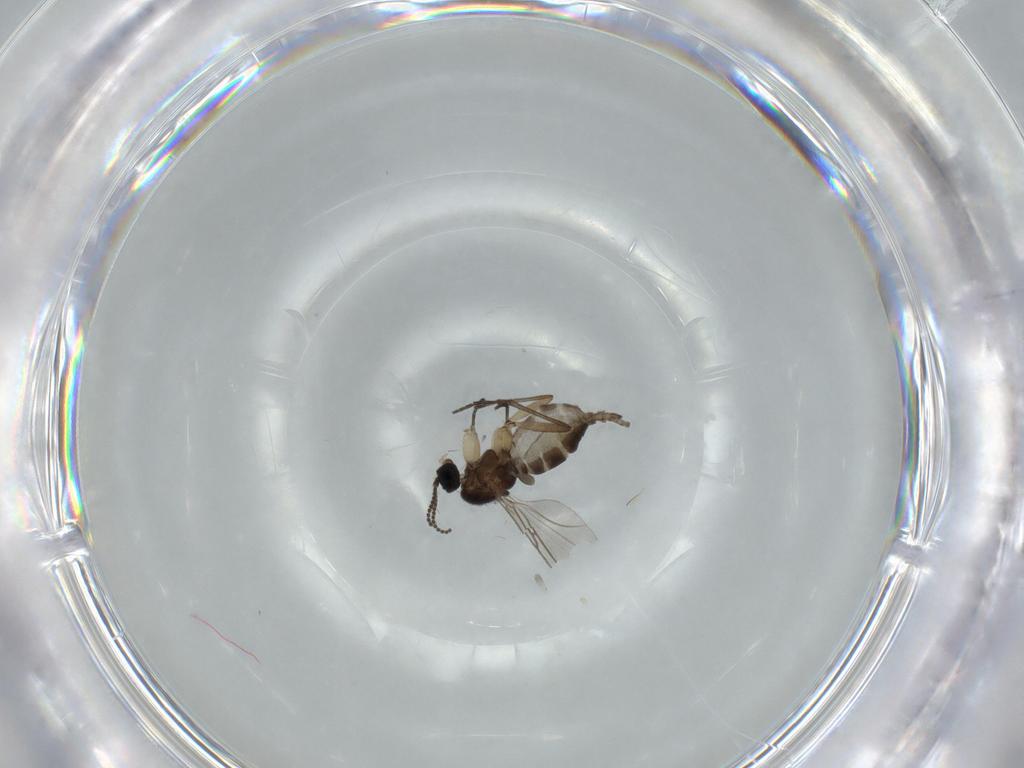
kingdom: Animalia
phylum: Arthropoda
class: Insecta
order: Diptera
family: Sciaridae
